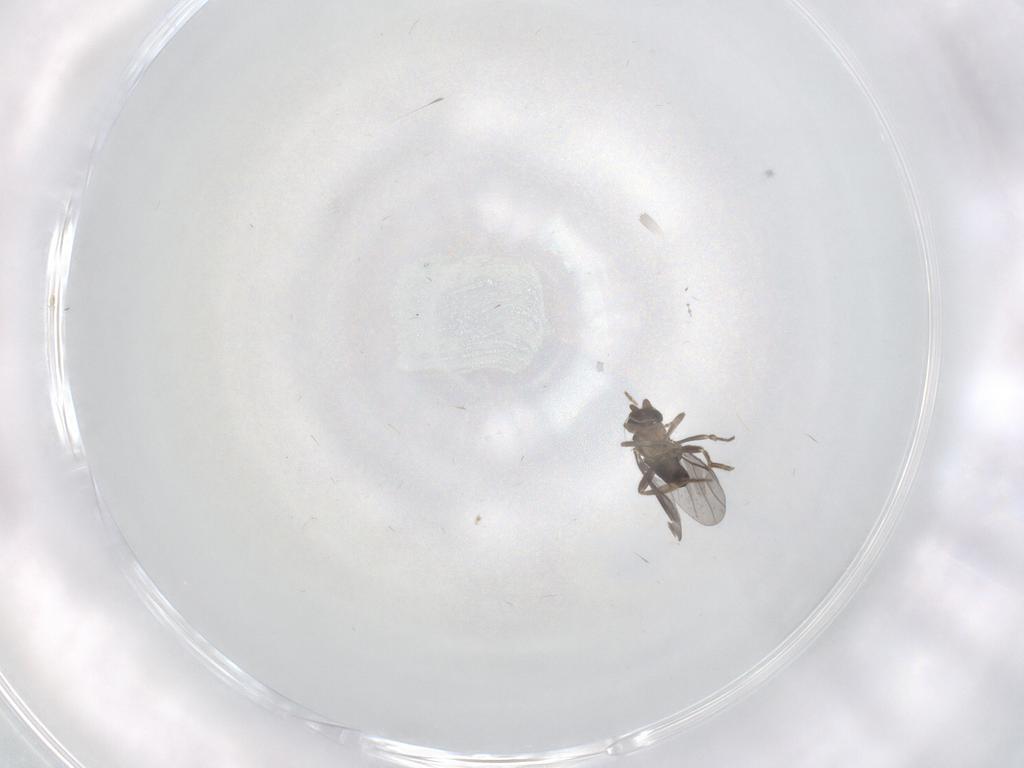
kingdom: Animalia
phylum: Arthropoda
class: Insecta
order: Diptera
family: Phoridae
